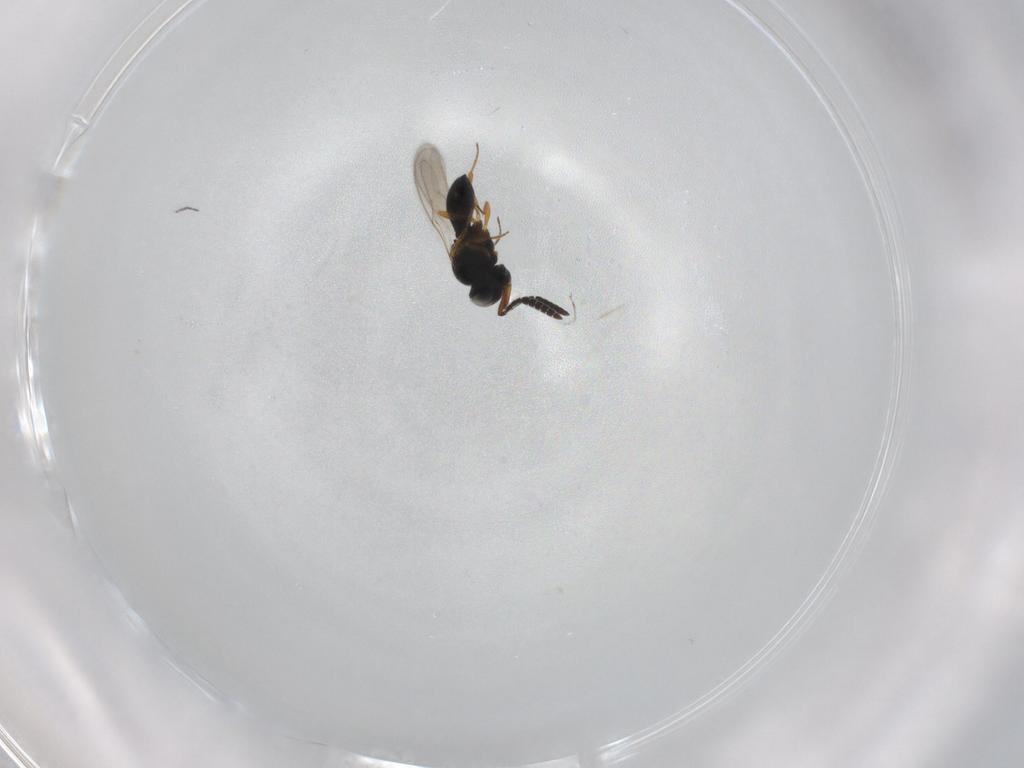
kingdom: Animalia
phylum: Arthropoda
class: Insecta
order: Hymenoptera
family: Scelionidae
